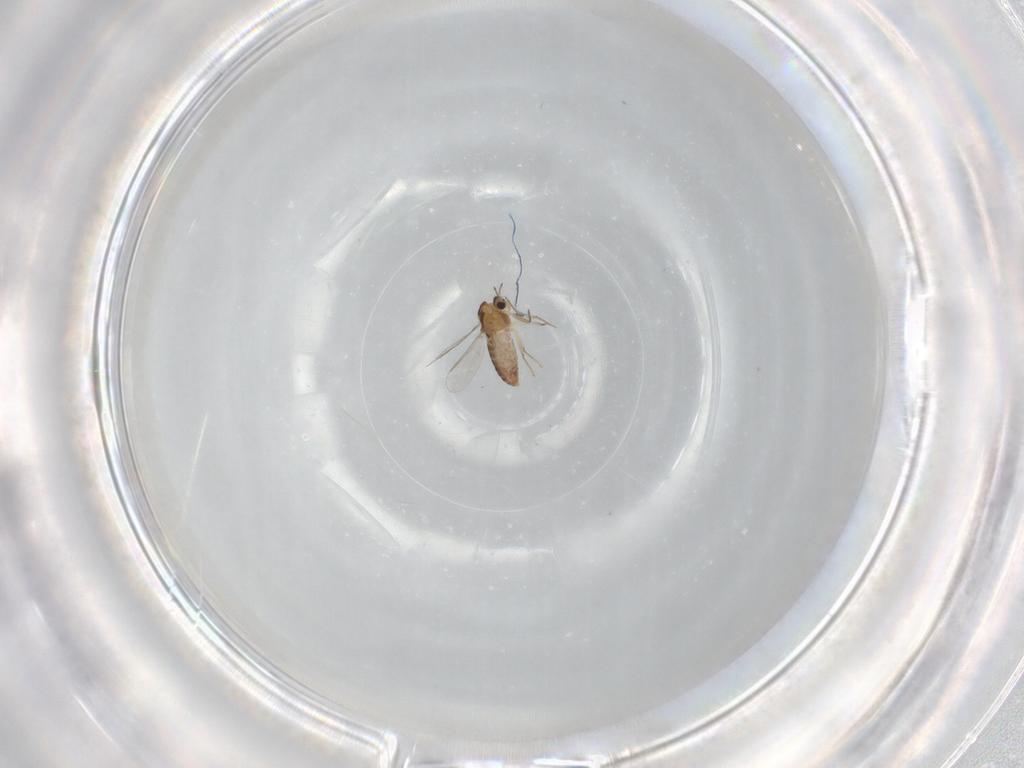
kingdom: Animalia
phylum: Arthropoda
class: Insecta
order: Diptera
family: Chironomidae
